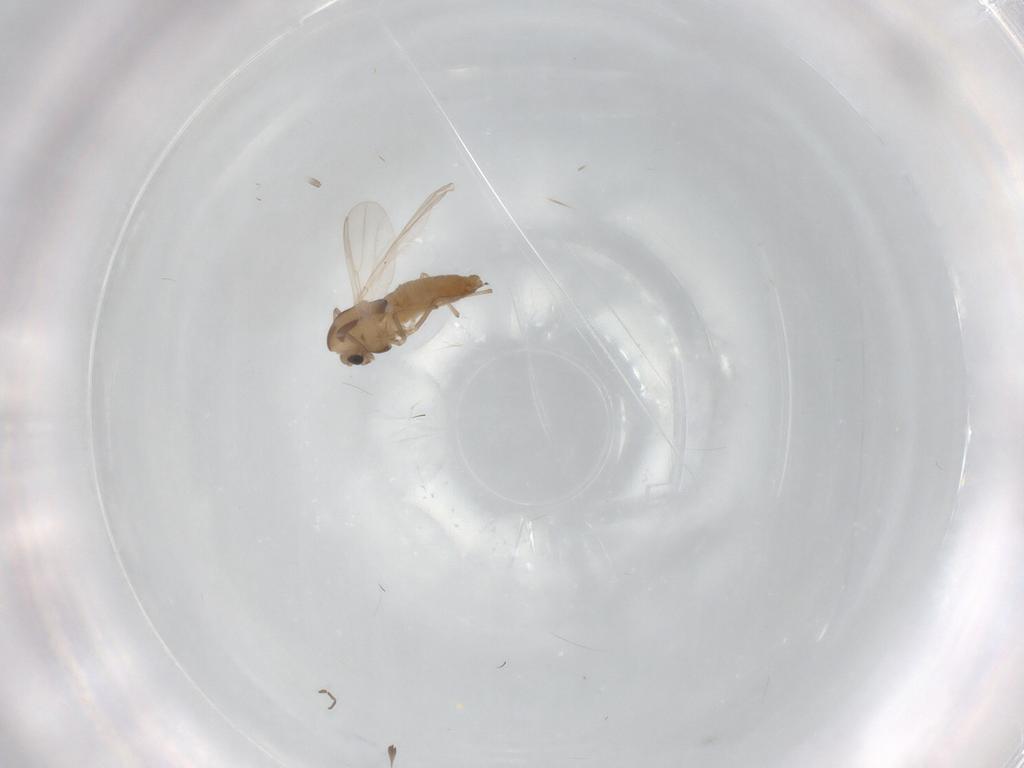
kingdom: Animalia
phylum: Arthropoda
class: Insecta
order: Diptera
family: Chironomidae
